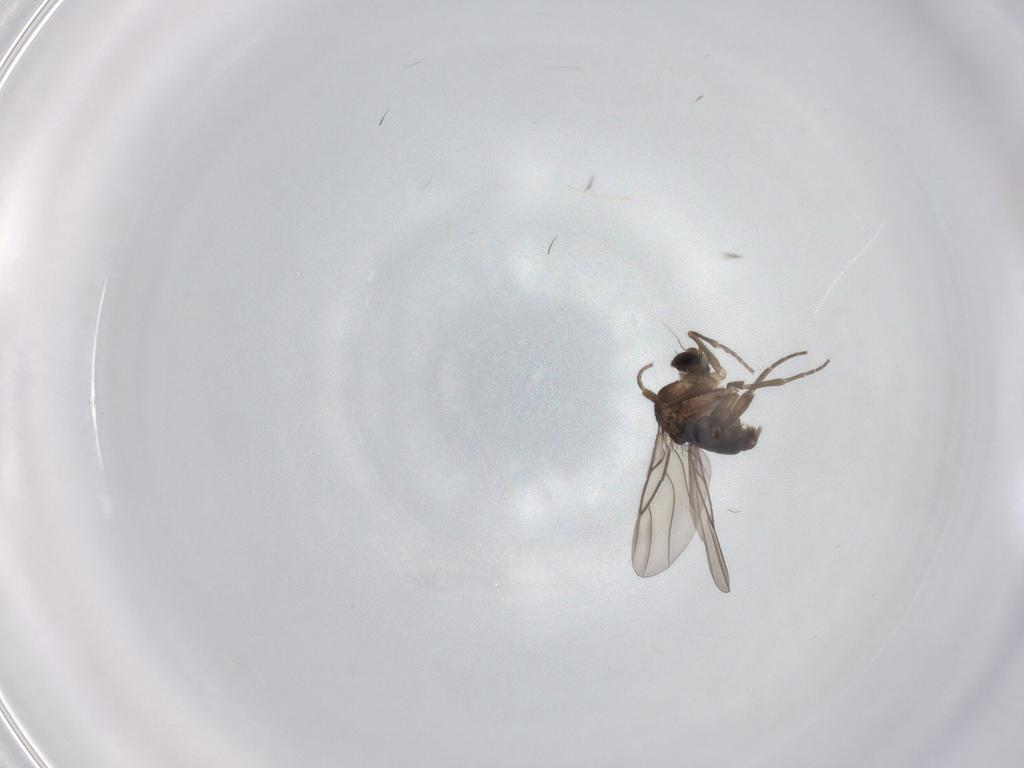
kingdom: Animalia
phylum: Arthropoda
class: Insecta
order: Diptera
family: Phoridae
